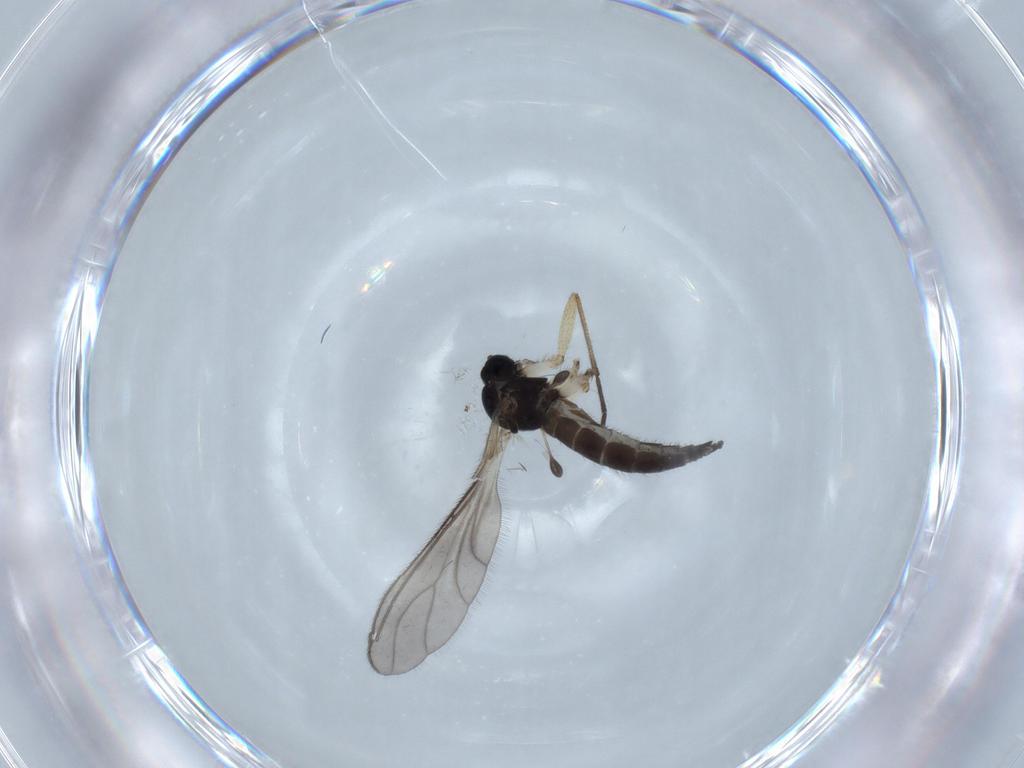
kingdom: Animalia
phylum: Arthropoda
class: Insecta
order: Diptera
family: Sciaridae
